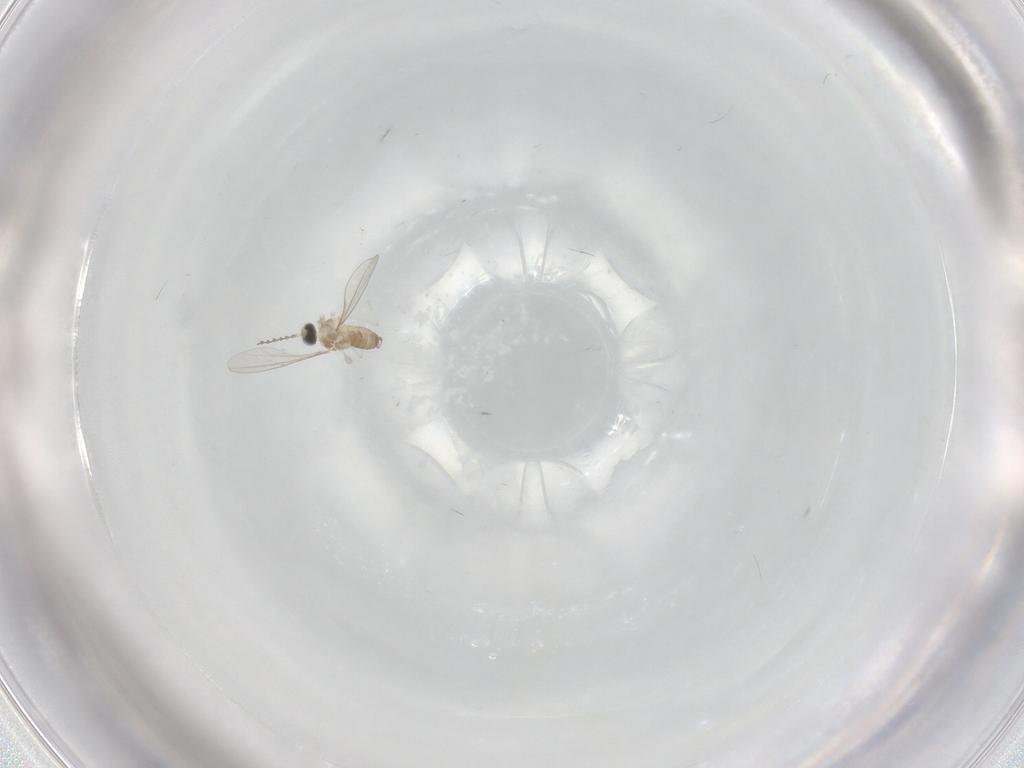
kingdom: Animalia
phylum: Arthropoda
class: Insecta
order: Diptera
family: Cecidomyiidae
